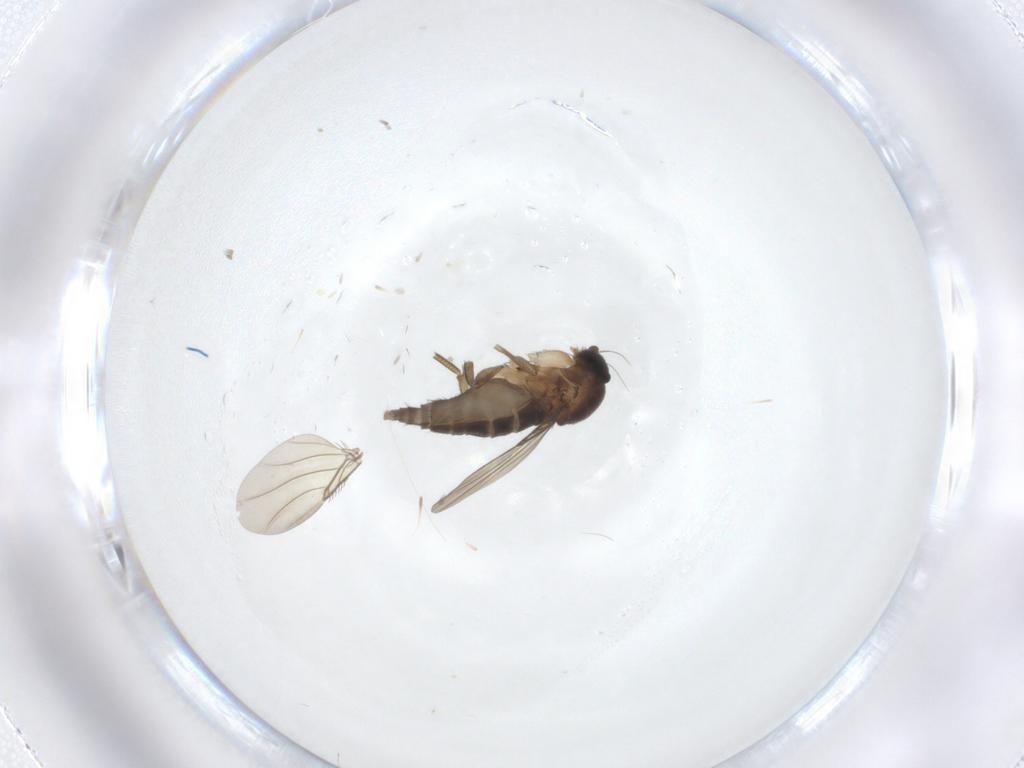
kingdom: Animalia
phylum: Arthropoda
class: Insecta
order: Diptera
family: Phoridae
